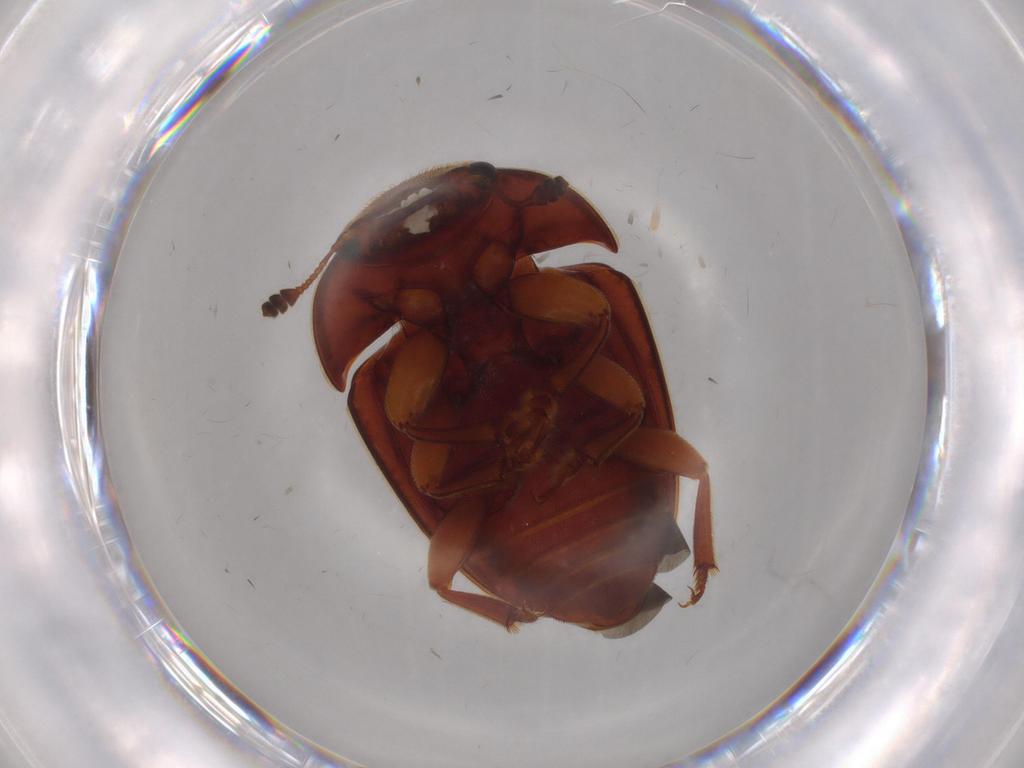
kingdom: Animalia
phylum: Arthropoda
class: Insecta
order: Coleoptera
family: Nitidulidae
